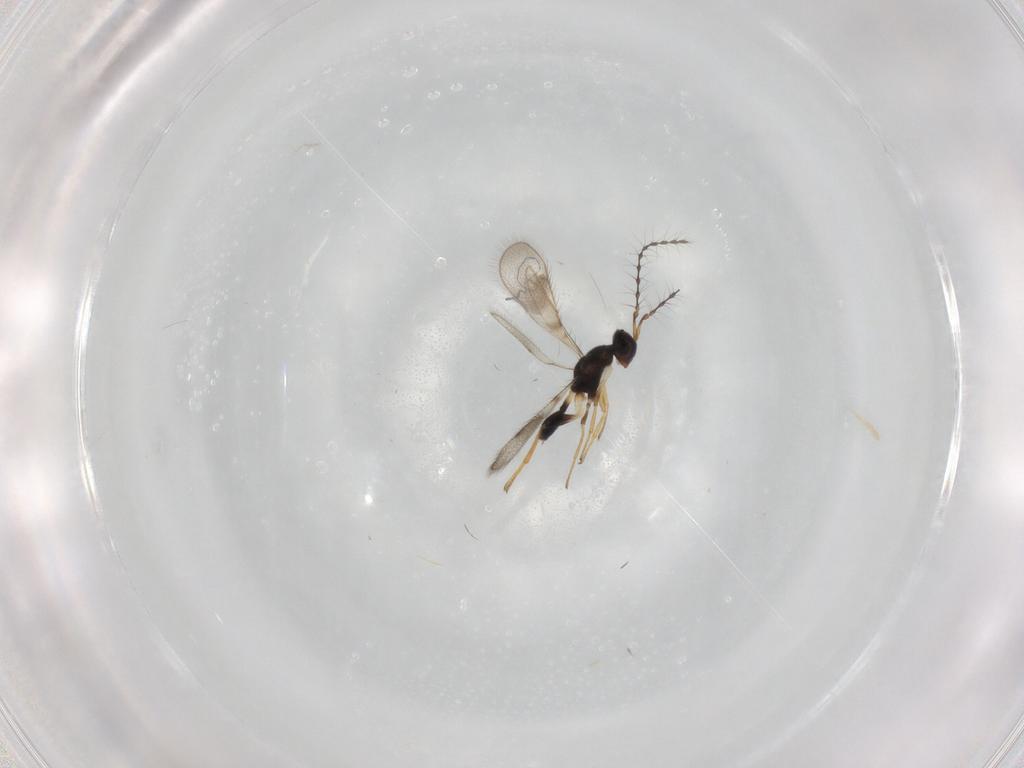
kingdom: Animalia
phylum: Arthropoda
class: Insecta
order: Hymenoptera
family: Diparidae
